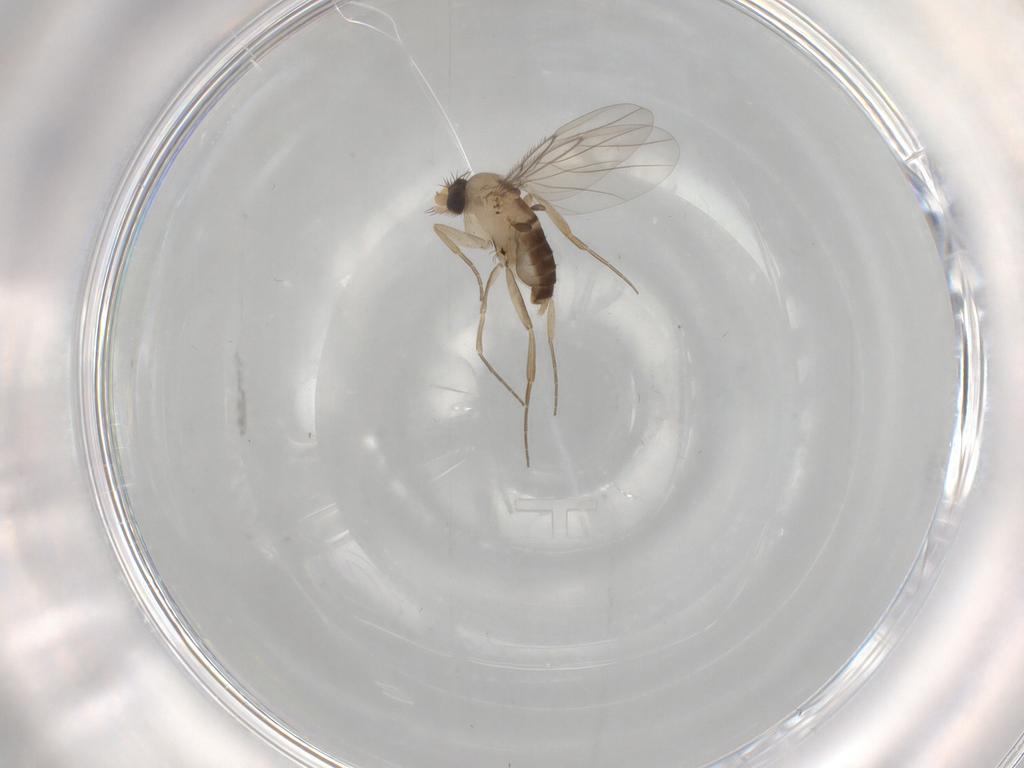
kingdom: Animalia
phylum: Arthropoda
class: Insecta
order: Diptera
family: Phoridae
